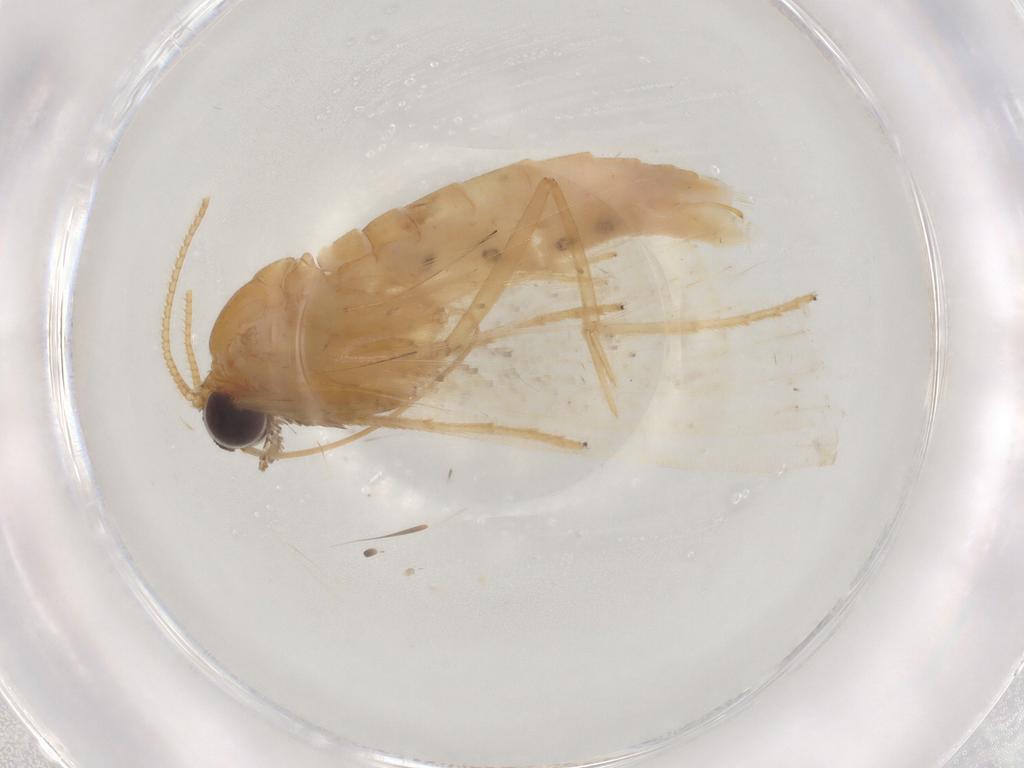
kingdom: Animalia
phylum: Arthropoda
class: Insecta
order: Lepidoptera
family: Geometridae
